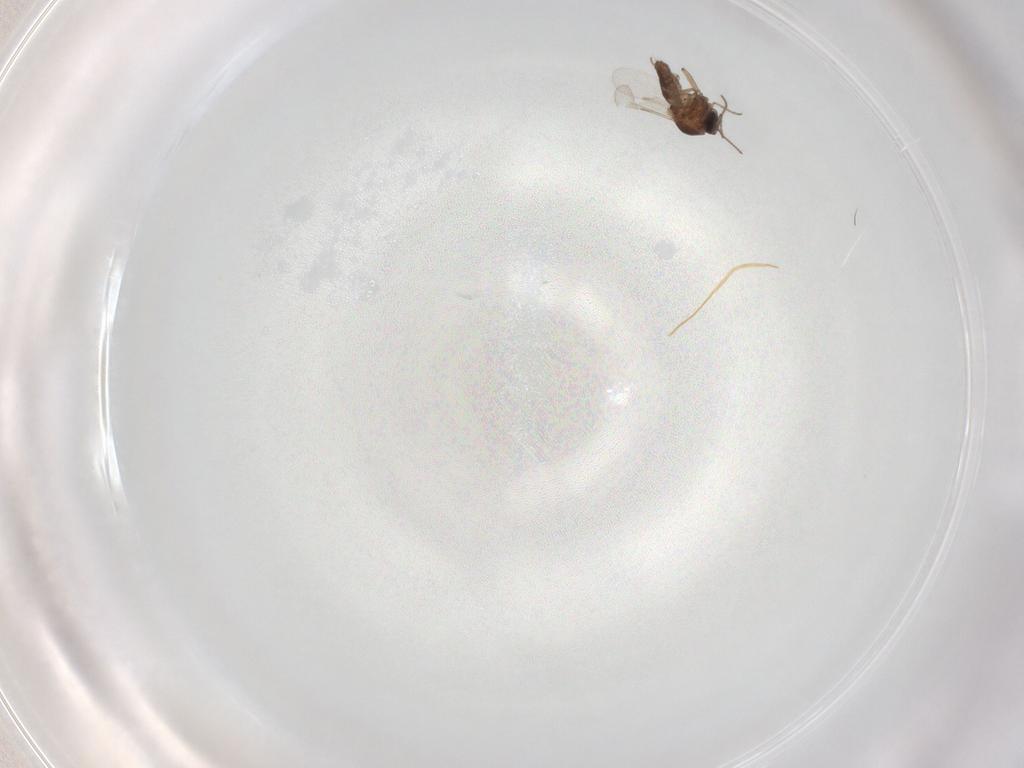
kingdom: Animalia
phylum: Arthropoda
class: Insecta
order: Diptera
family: Ceratopogonidae
